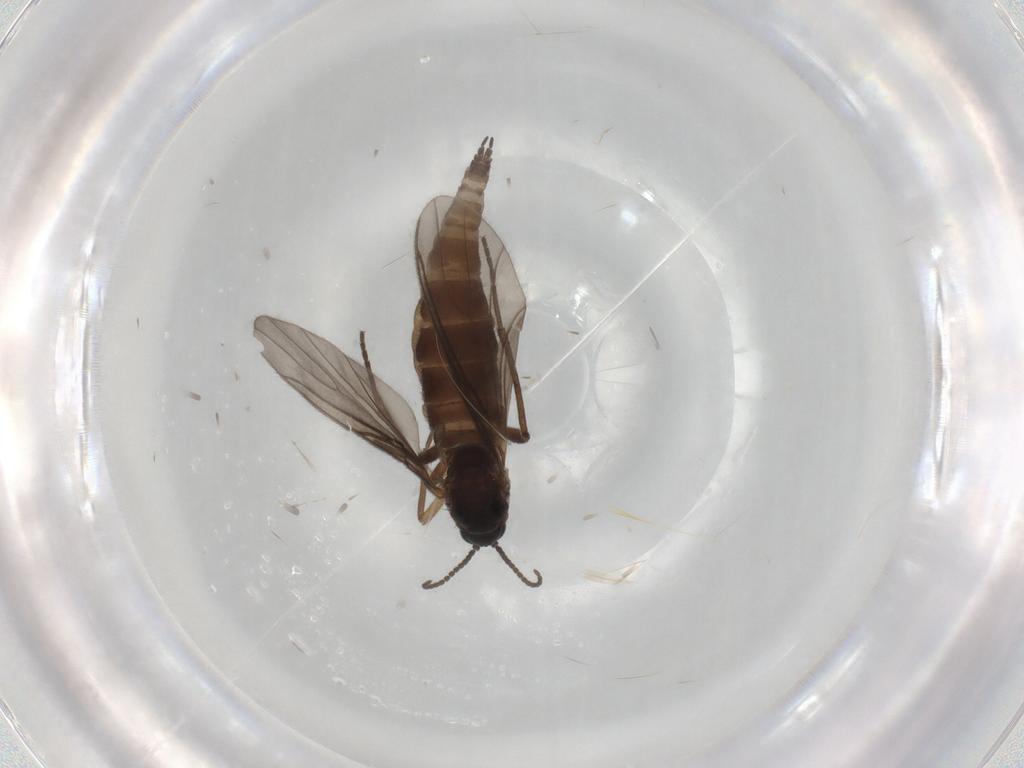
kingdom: Animalia
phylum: Arthropoda
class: Insecta
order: Diptera
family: Sciaridae
